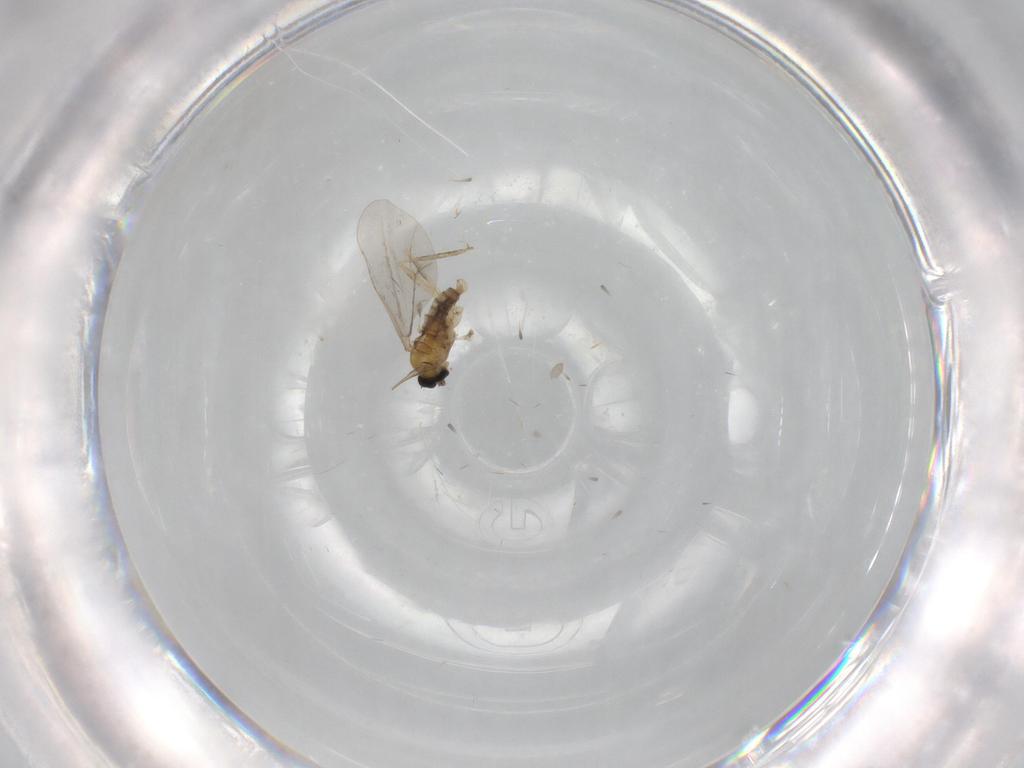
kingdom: Animalia
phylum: Arthropoda
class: Insecta
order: Diptera
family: Cecidomyiidae
